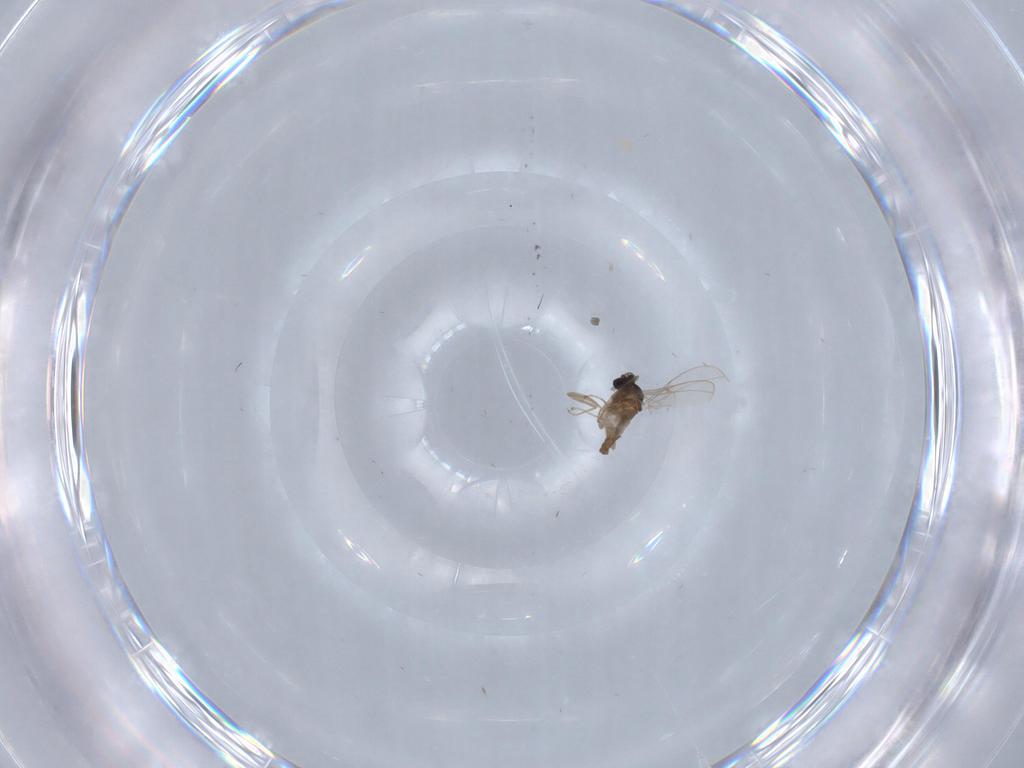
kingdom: Animalia
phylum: Arthropoda
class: Insecta
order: Diptera
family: Cecidomyiidae
